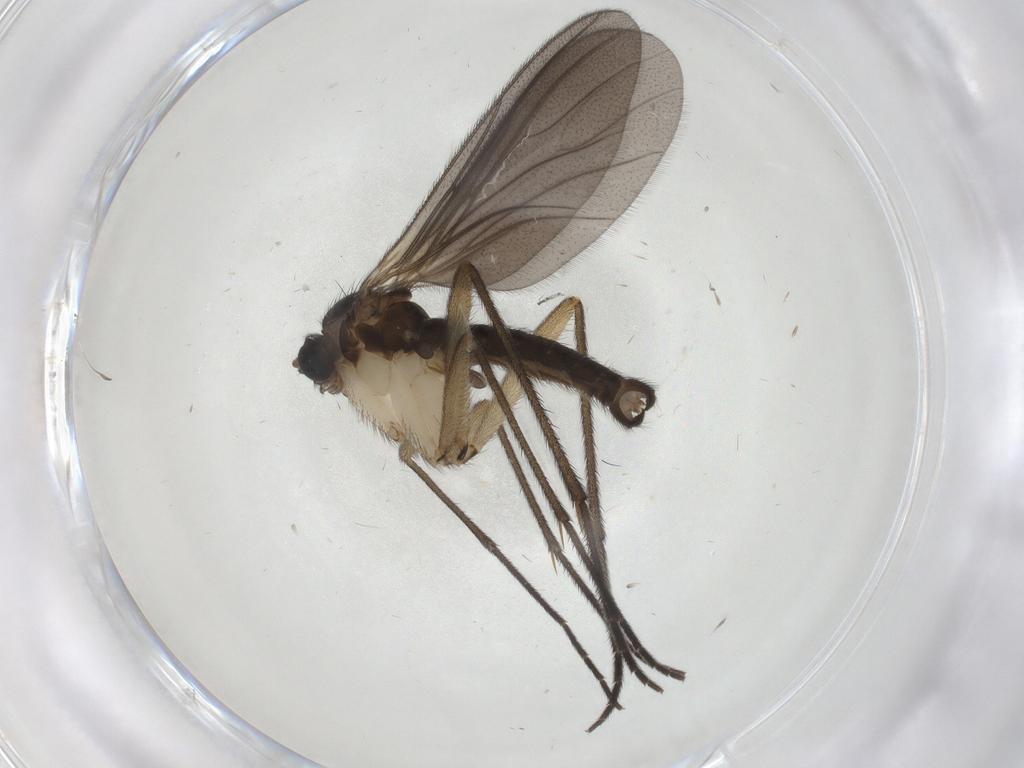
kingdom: Animalia
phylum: Arthropoda
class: Insecta
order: Diptera
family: Sciaridae
